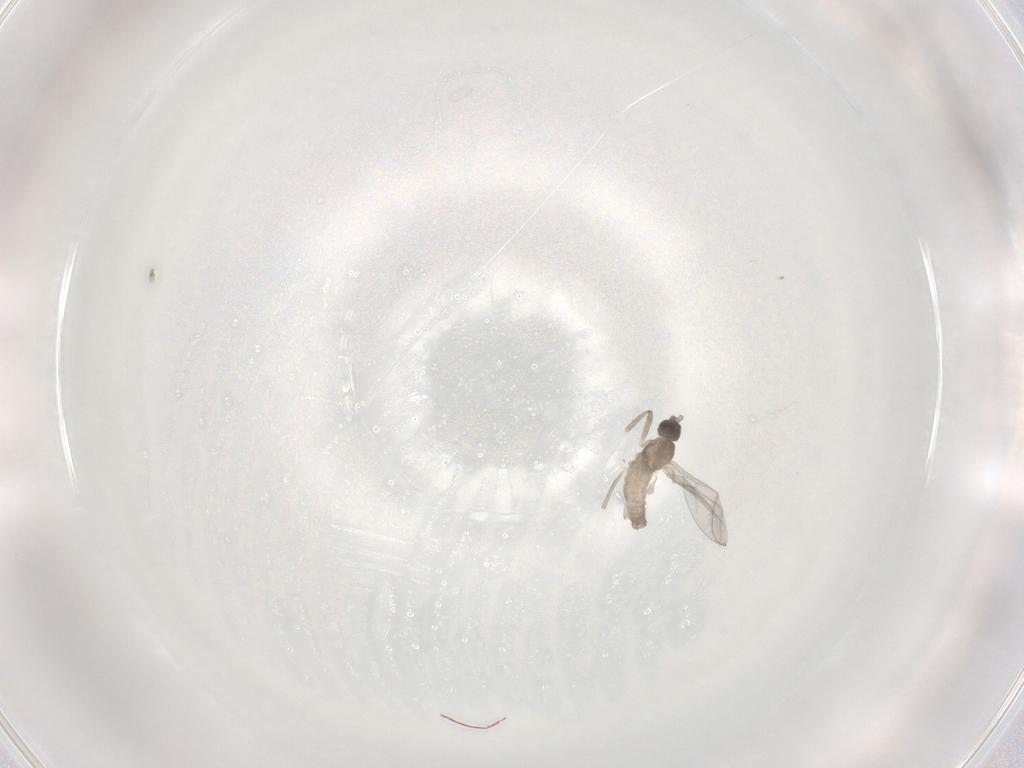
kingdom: Animalia
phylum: Arthropoda
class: Insecta
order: Diptera
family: Cecidomyiidae
